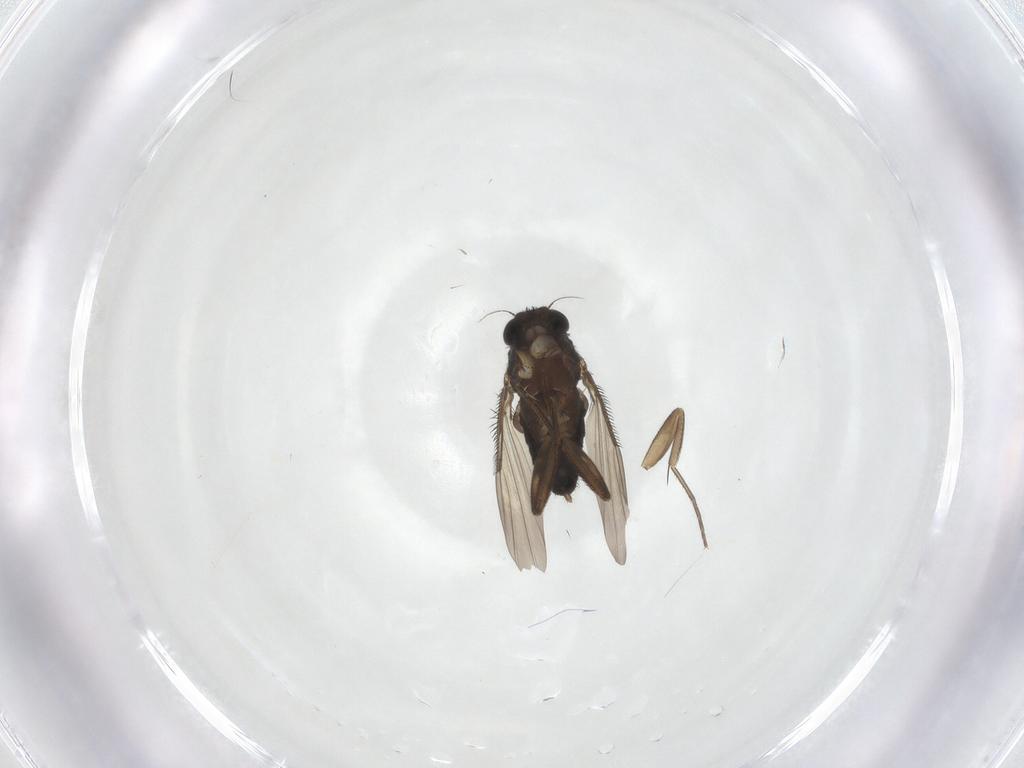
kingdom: Animalia
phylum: Arthropoda
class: Insecta
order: Diptera
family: Phoridae
